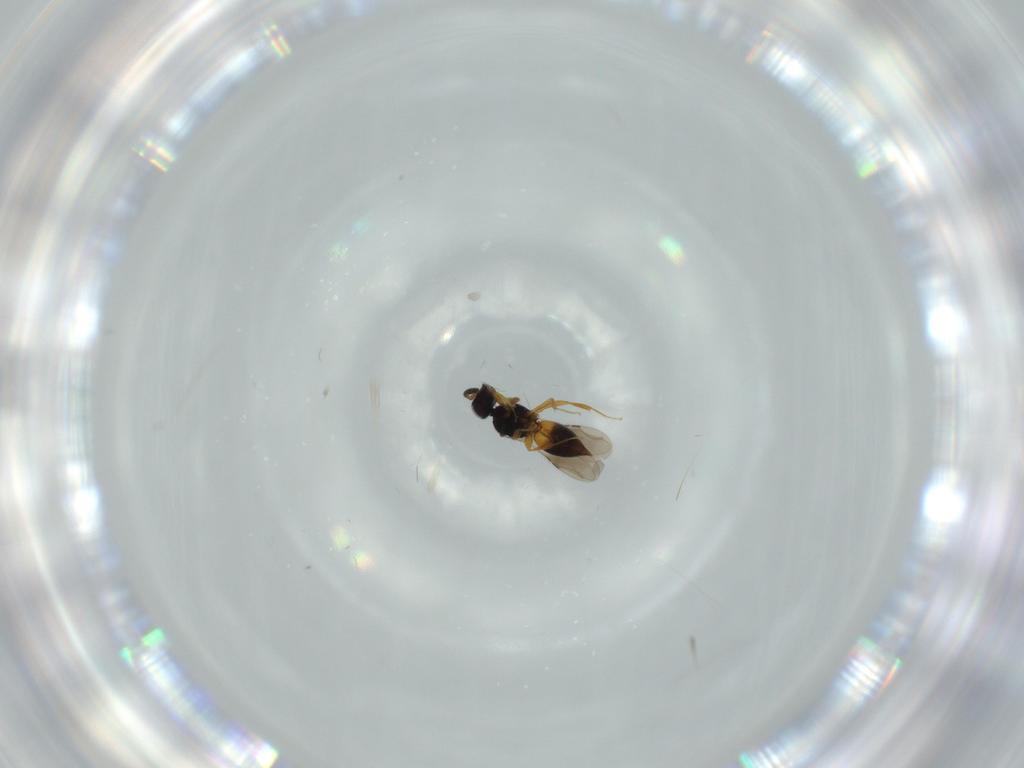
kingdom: Animalia
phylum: Arthropoda
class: Insecta
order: Hymenoptera
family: Mymaridae
